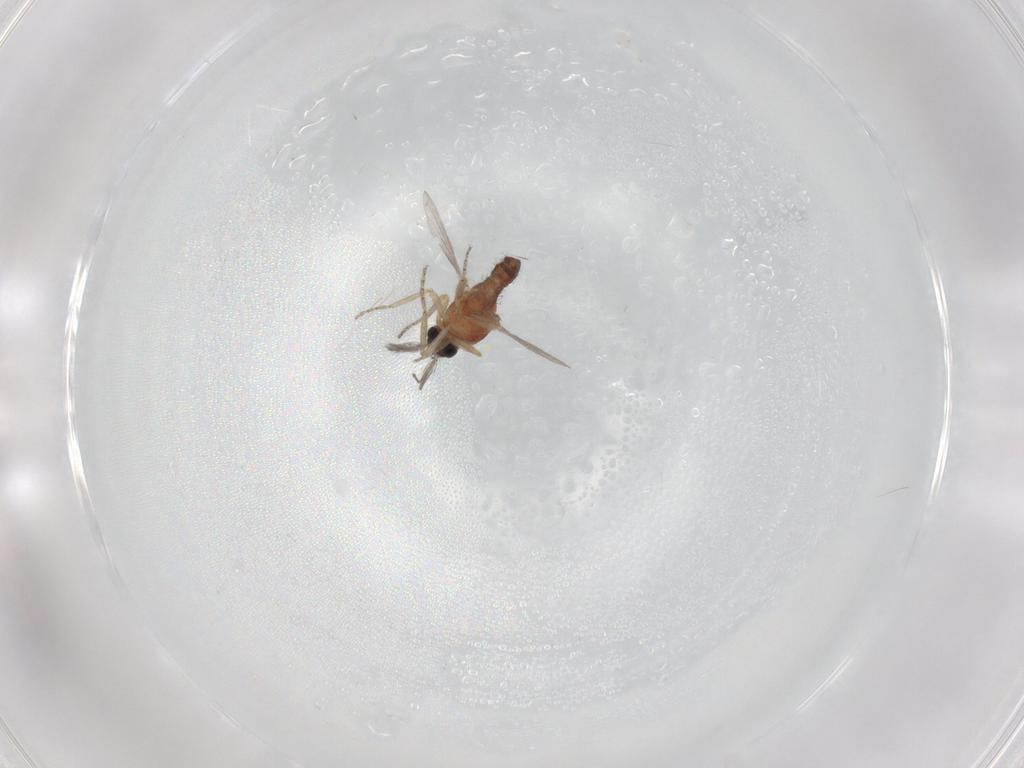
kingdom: Animalia
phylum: Arthropoda
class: Insecta
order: Diptera
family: Ceratopogonidae
